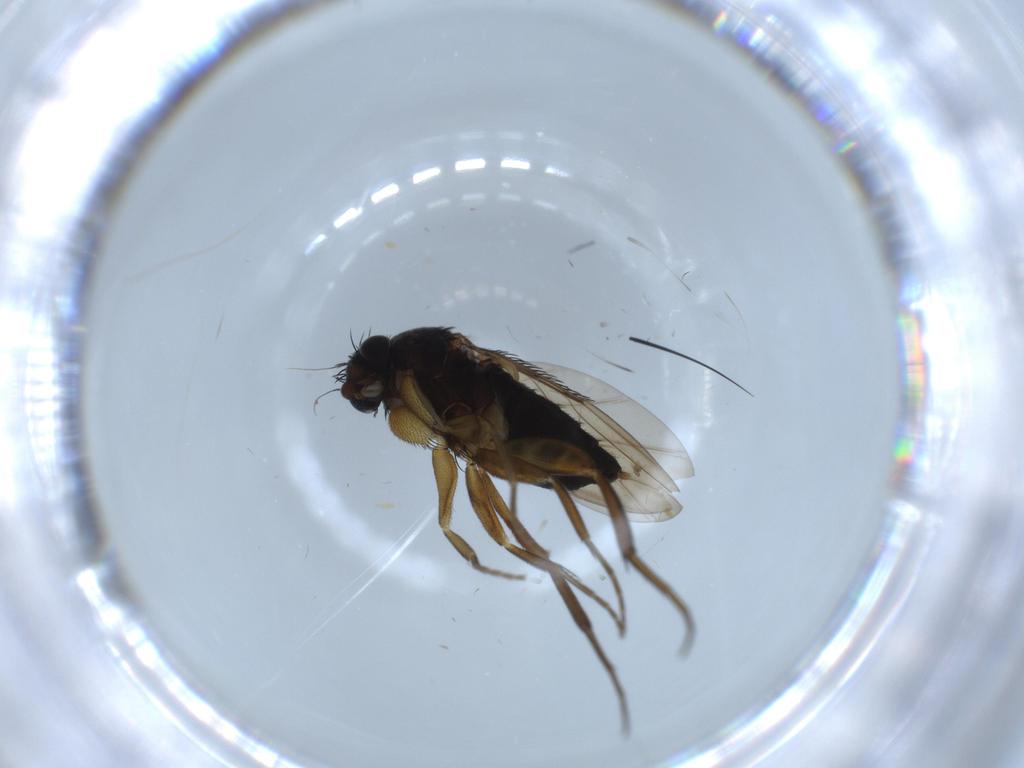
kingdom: Animalia
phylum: Arthropoda
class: Insecta
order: Diptera
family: Phoridae
